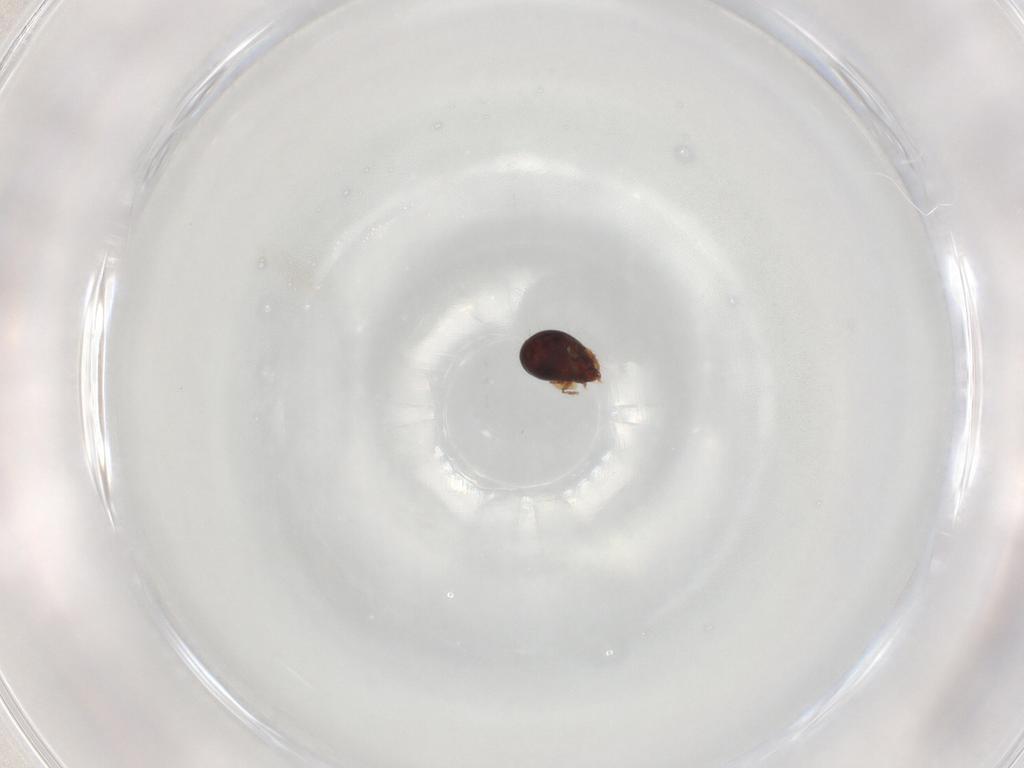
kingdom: Animalia
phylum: Arthropoda
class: Arachnida
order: Sarcoptiformes
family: Humerobatidae
